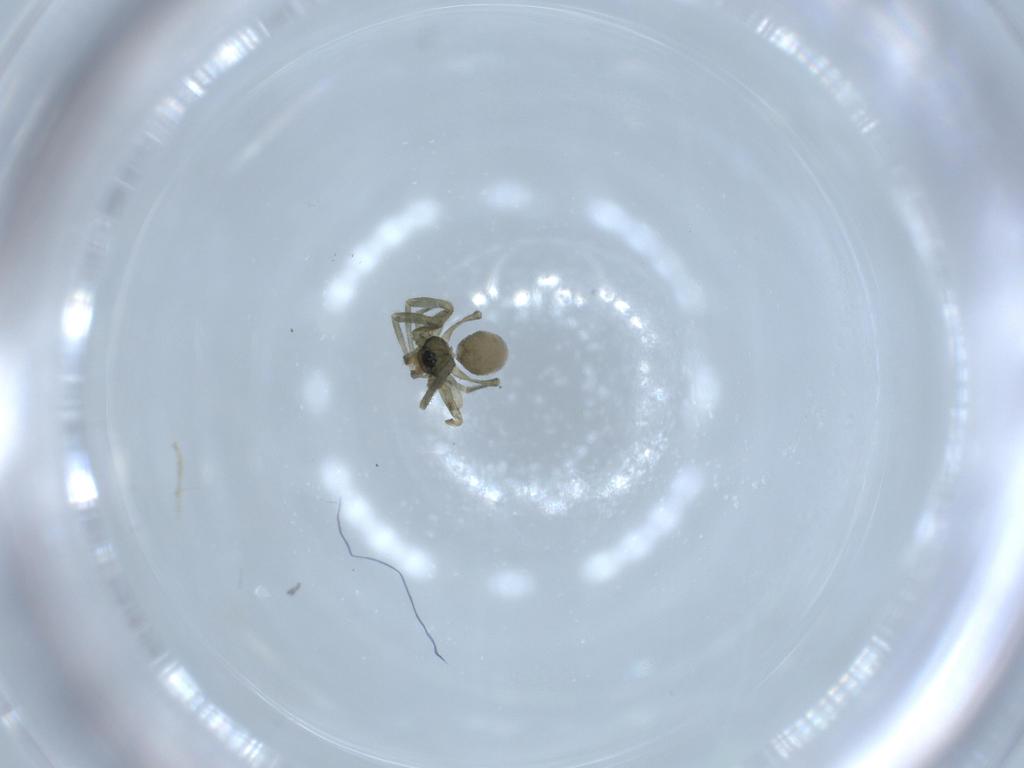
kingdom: Animalia
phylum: Arthropoda
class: Arachnida
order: Araneae
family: Linyphiidae
